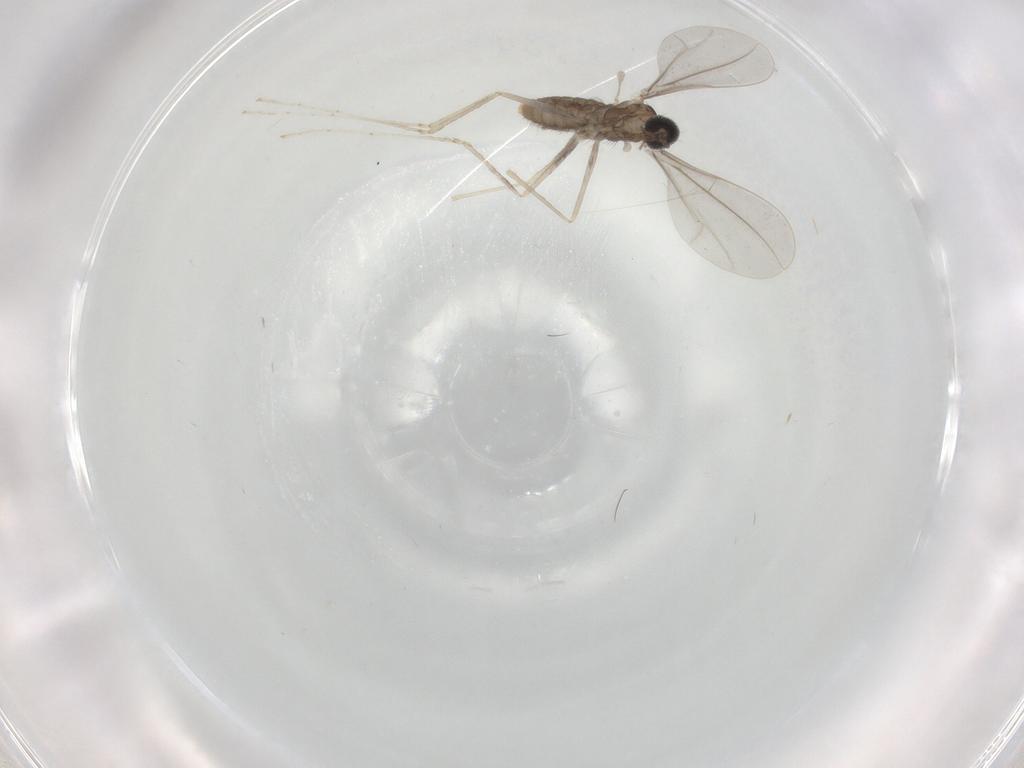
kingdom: Animalia
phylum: Arthropoda
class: Insecta
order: Diptera
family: Cecidomyiidae
